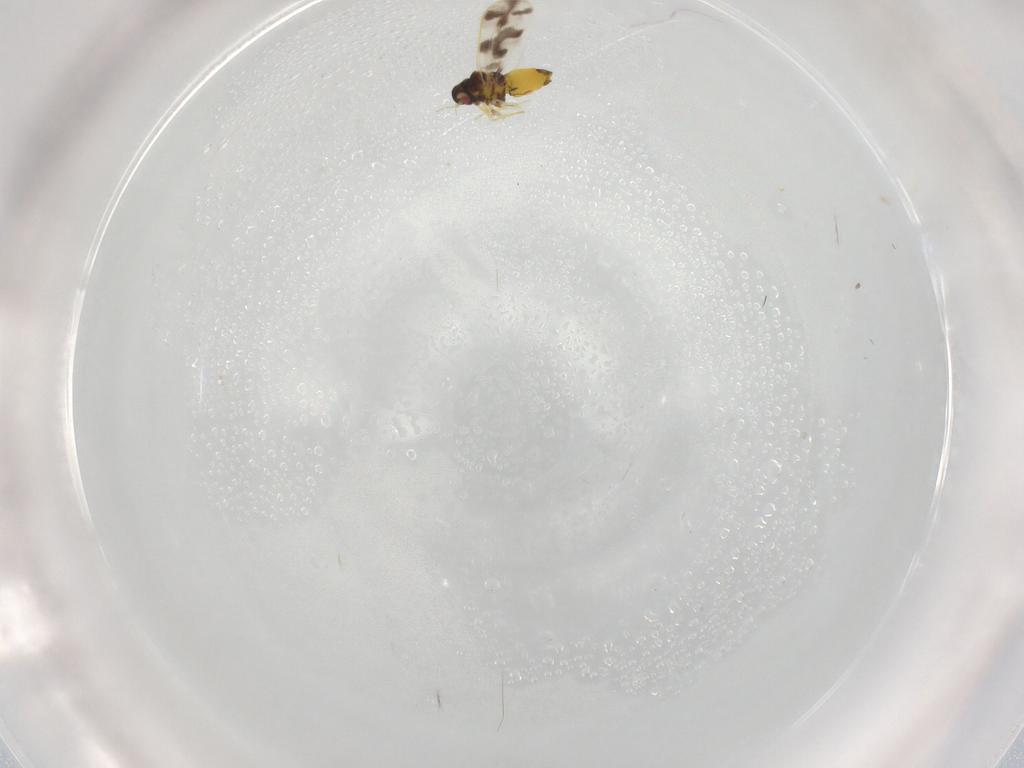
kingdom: Animalia
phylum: Arthropoda
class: Insecta
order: Hemiptera
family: Aleyrodidae
